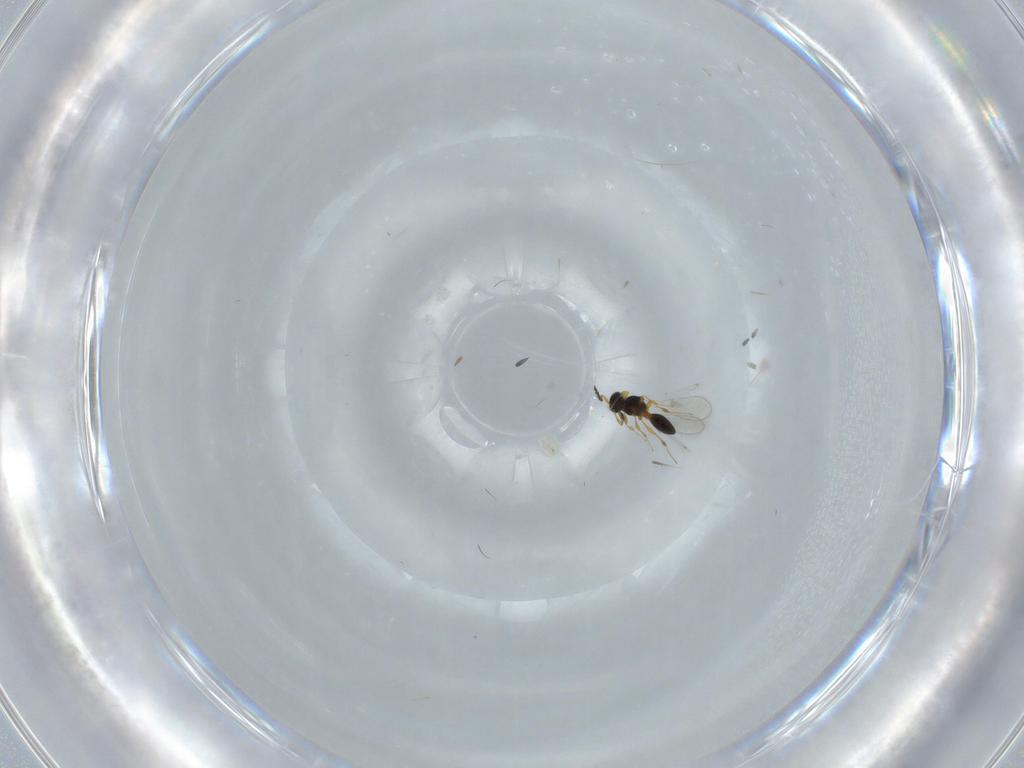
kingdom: Animalia
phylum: Arthropoda
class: Insecta
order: Hymenoptera
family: Platygastridae
